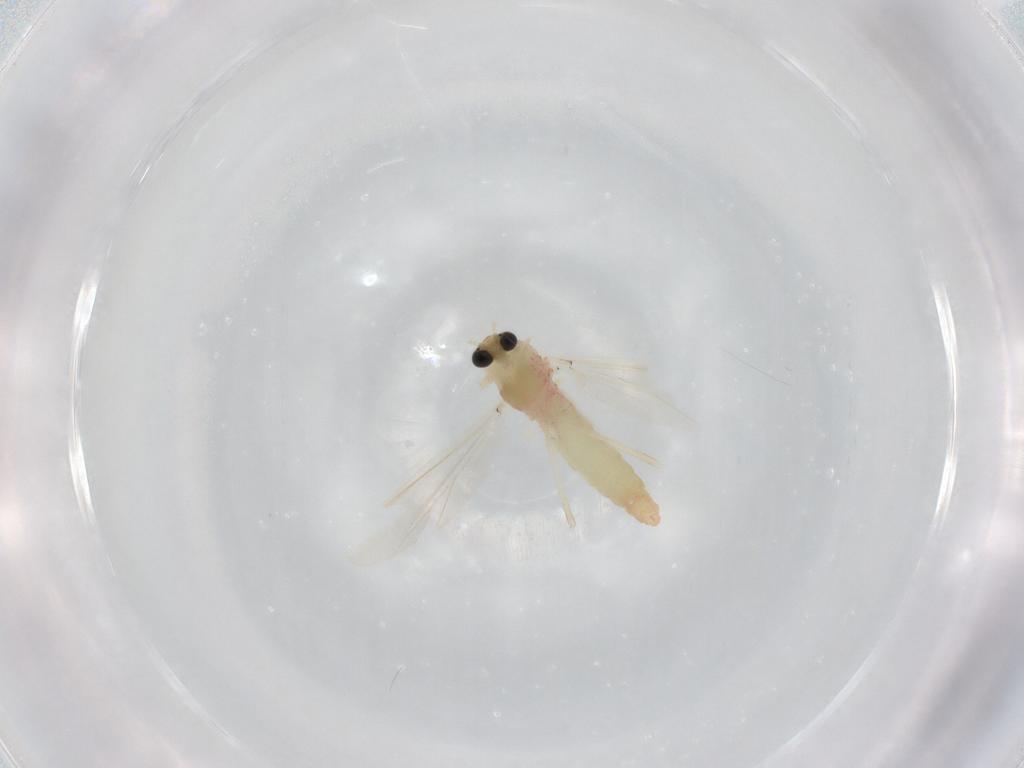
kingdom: Animalia
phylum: Arthropoda
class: Insecta
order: Diptera
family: Chironomidae
